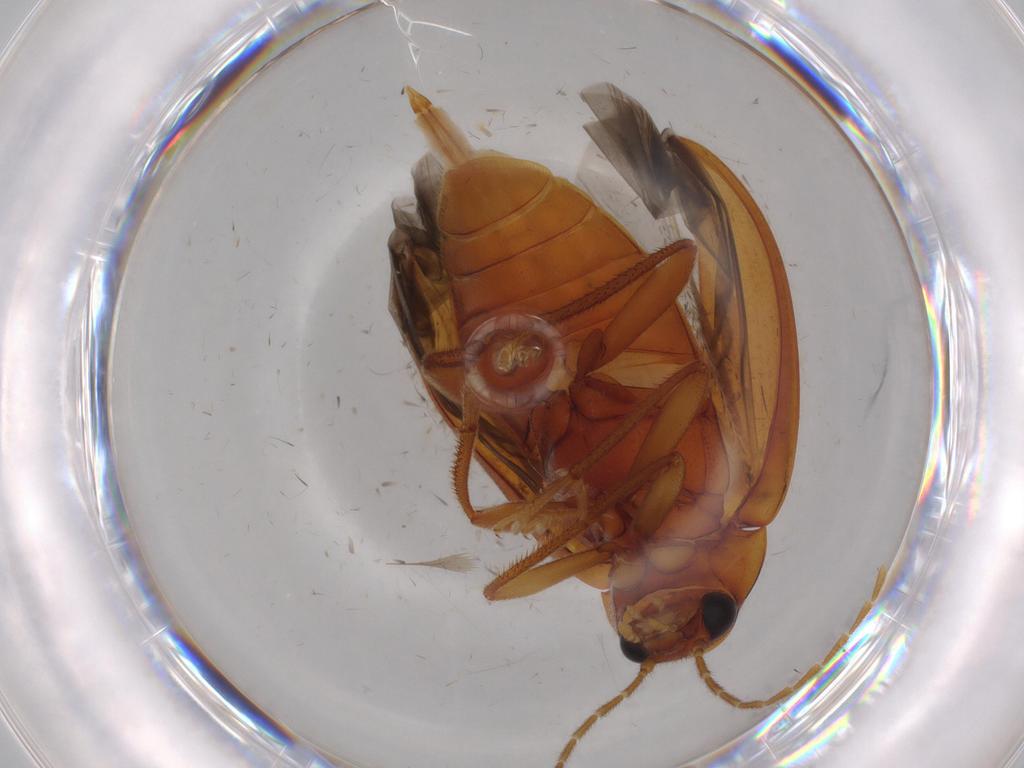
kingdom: Animalia
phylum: Arthropoda
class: Insecta
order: Coleoptera
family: Ptilodactylidae
